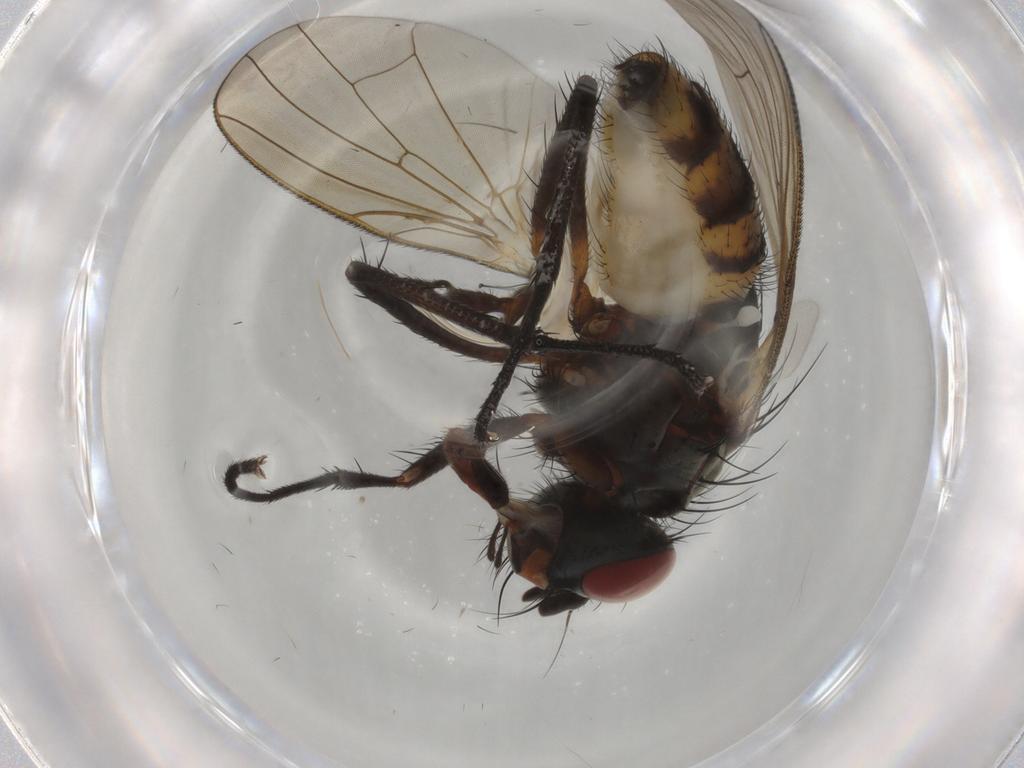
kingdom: Animalia
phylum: Arthropoda
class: Insecta
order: Diptera
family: Anthomyiidae
